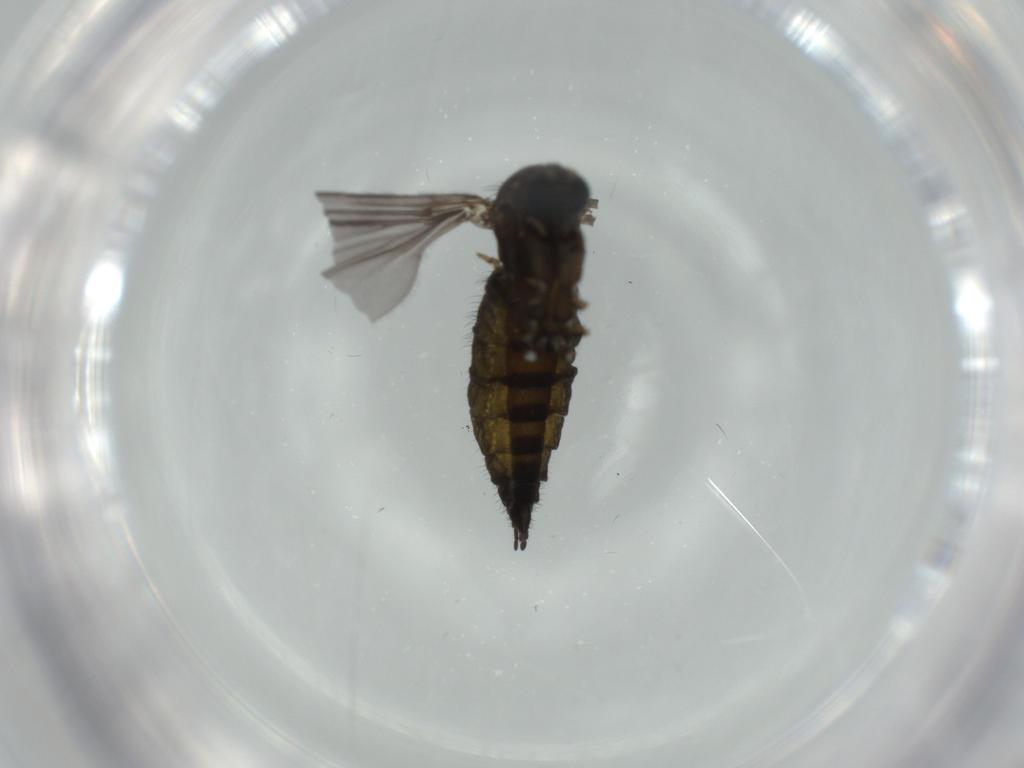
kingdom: Animalia
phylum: Arthropoda
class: Insecta
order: Diptera
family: Sciaridae
